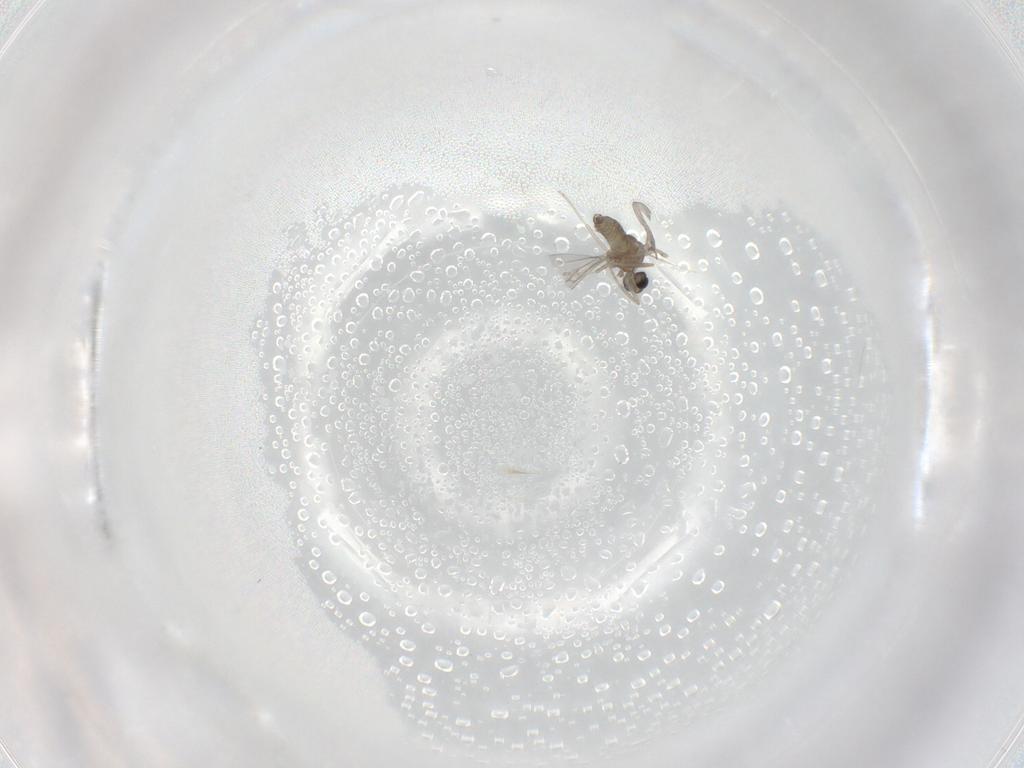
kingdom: Animalia
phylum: Arthropoda
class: Insecta
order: Diptera
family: Cecidomyiidae
